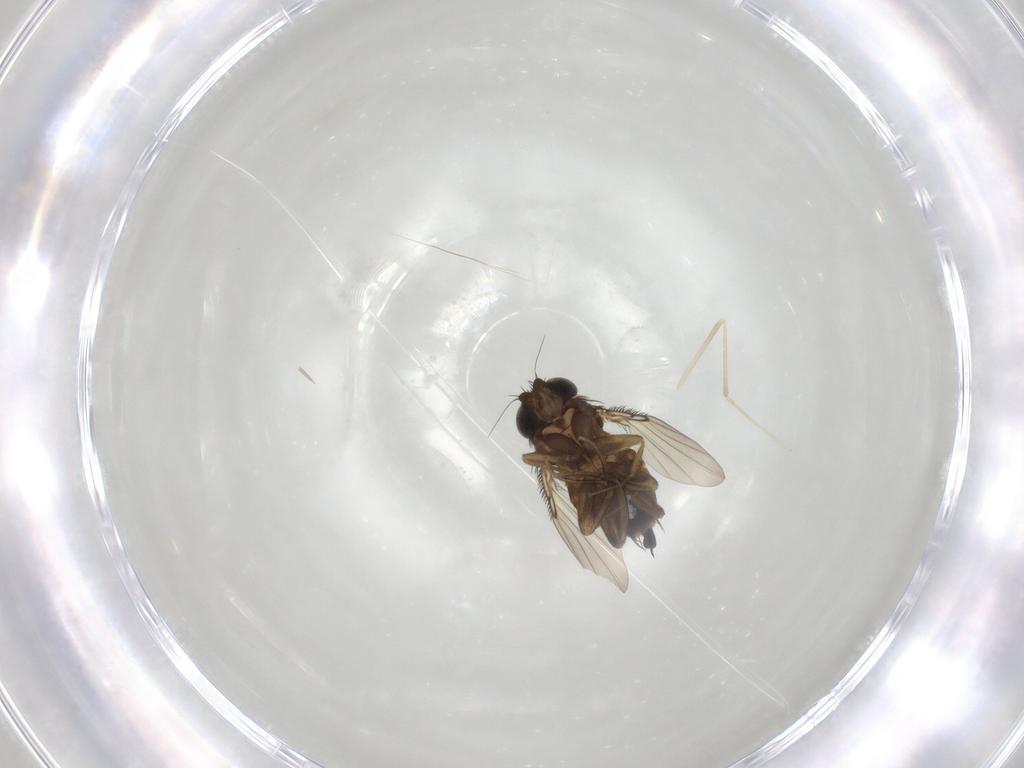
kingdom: Animalia
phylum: Arthropoda
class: Insecta
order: Diptera
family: Phoridae
